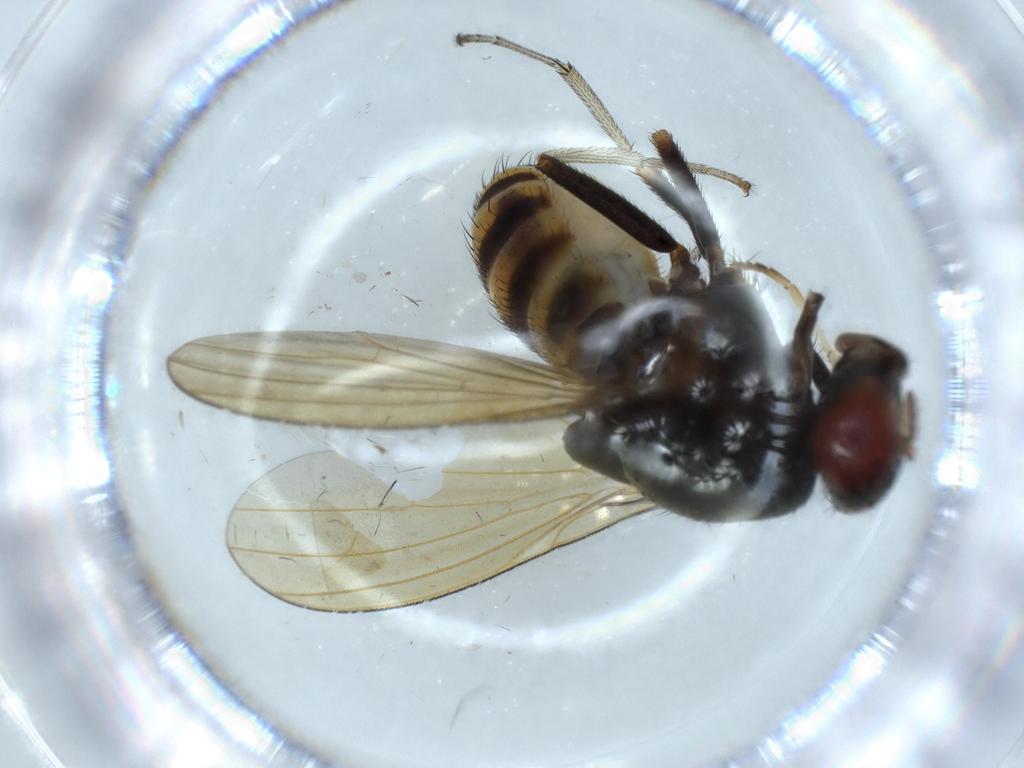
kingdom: Animalia
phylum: Arthropoda
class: Insecta
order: Diptera
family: Phoridae
